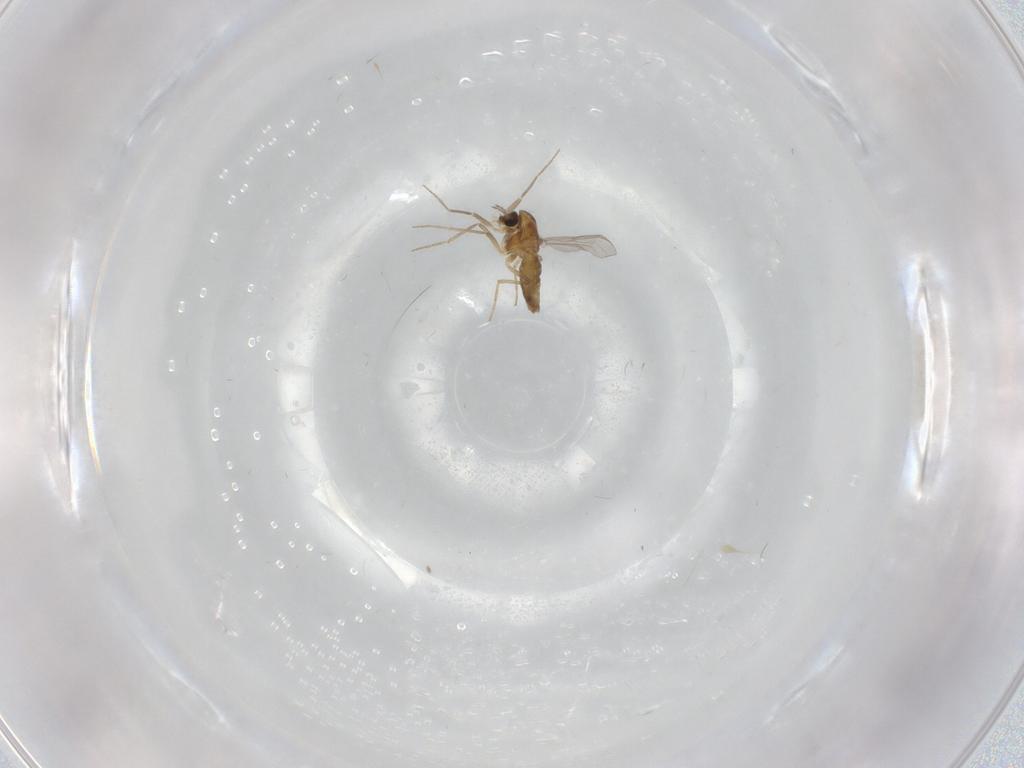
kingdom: Animalia
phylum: Arthropoda
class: Insecta
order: Diptera
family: Chironomidae
